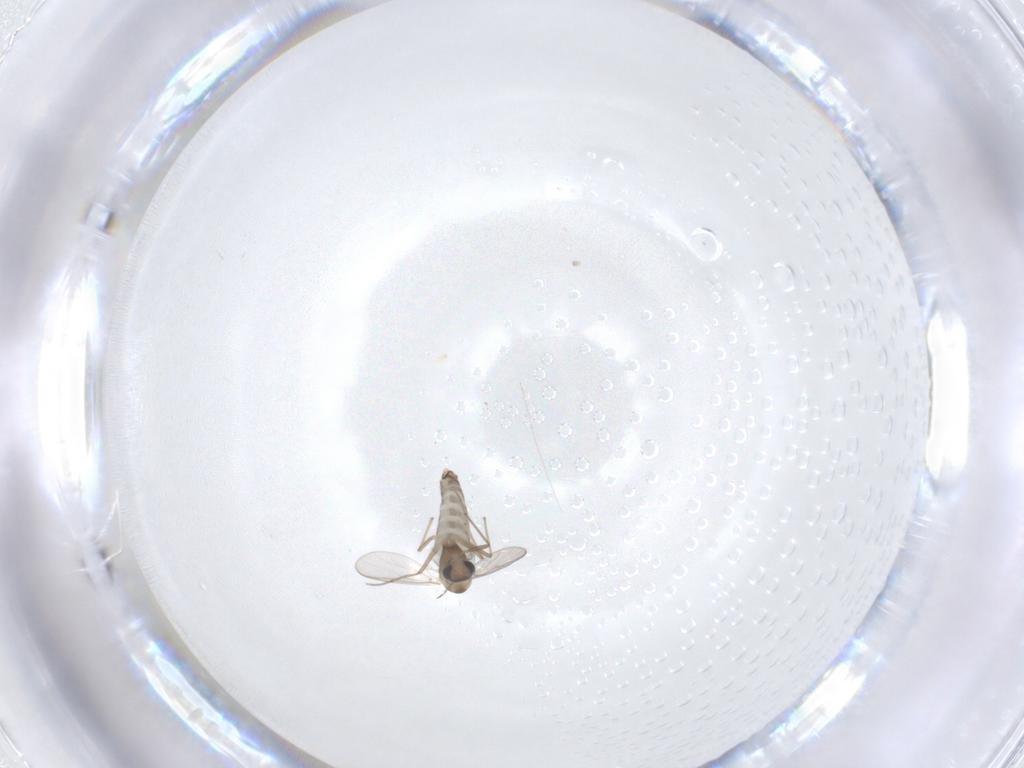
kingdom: Animalia
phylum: Arthropoda
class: Insecta
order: Diptera
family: Chironomidae
